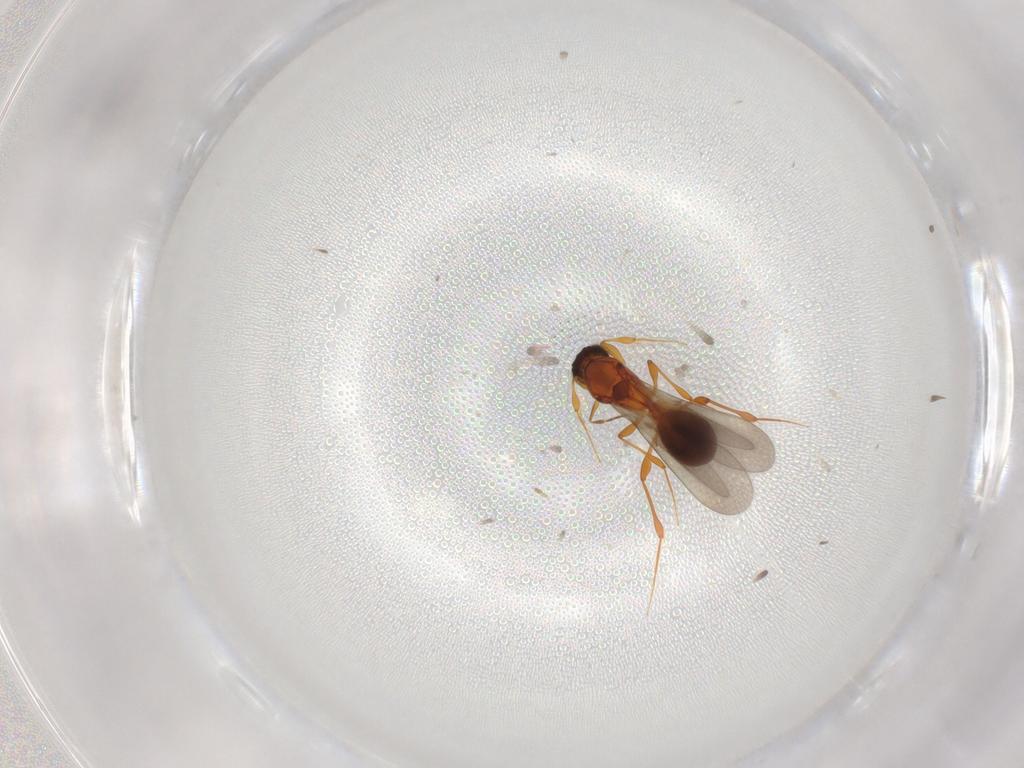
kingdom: Animalia
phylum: Arthropoda
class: Insecta
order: Hymenoptera
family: Platygastridae
